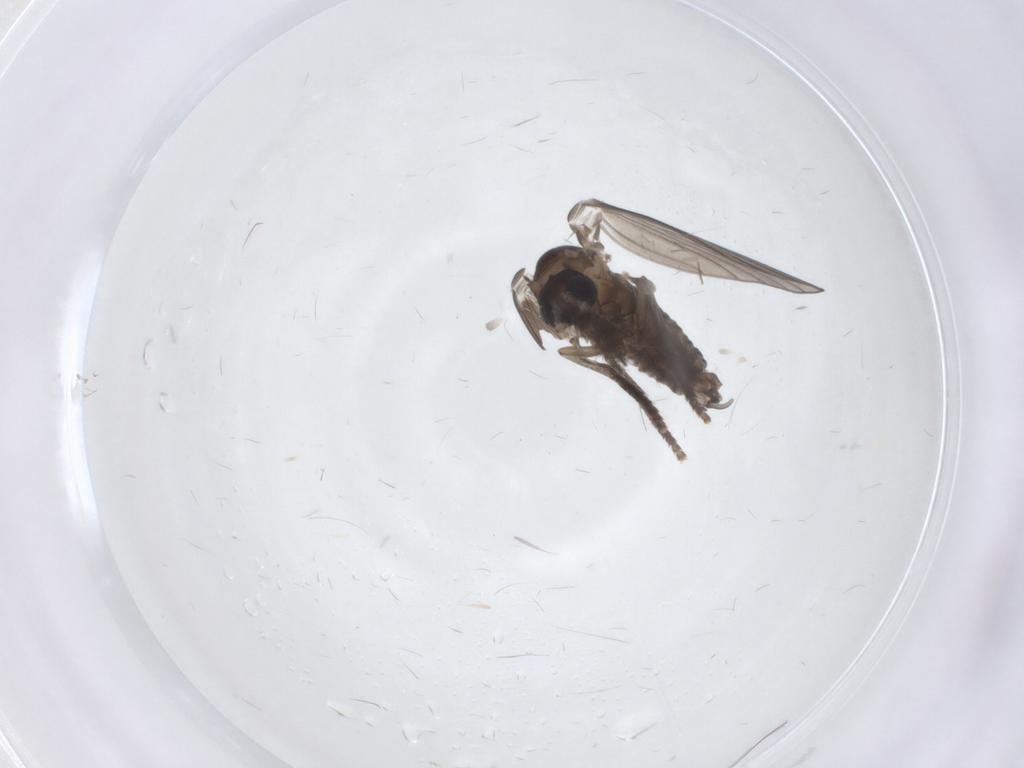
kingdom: Animalia
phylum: Arthropoda
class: Insecta
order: Diptera
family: Psychodidae
